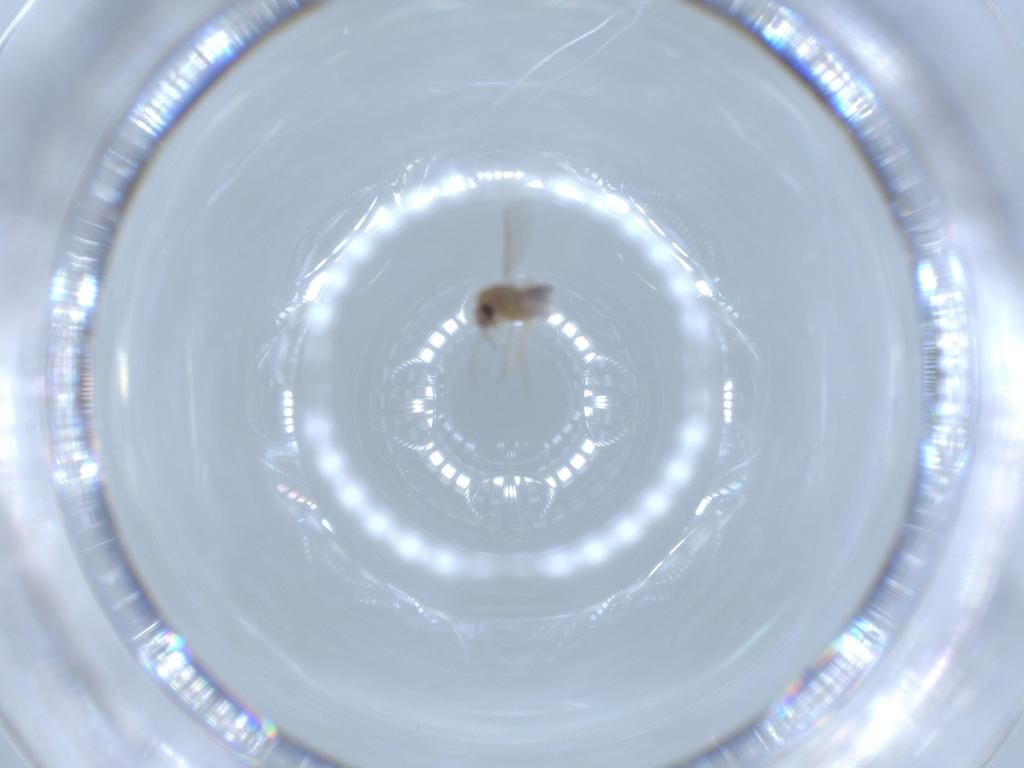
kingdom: Animalia
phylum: Arthropoda
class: Insecta
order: Diptera
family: Chironomidae
